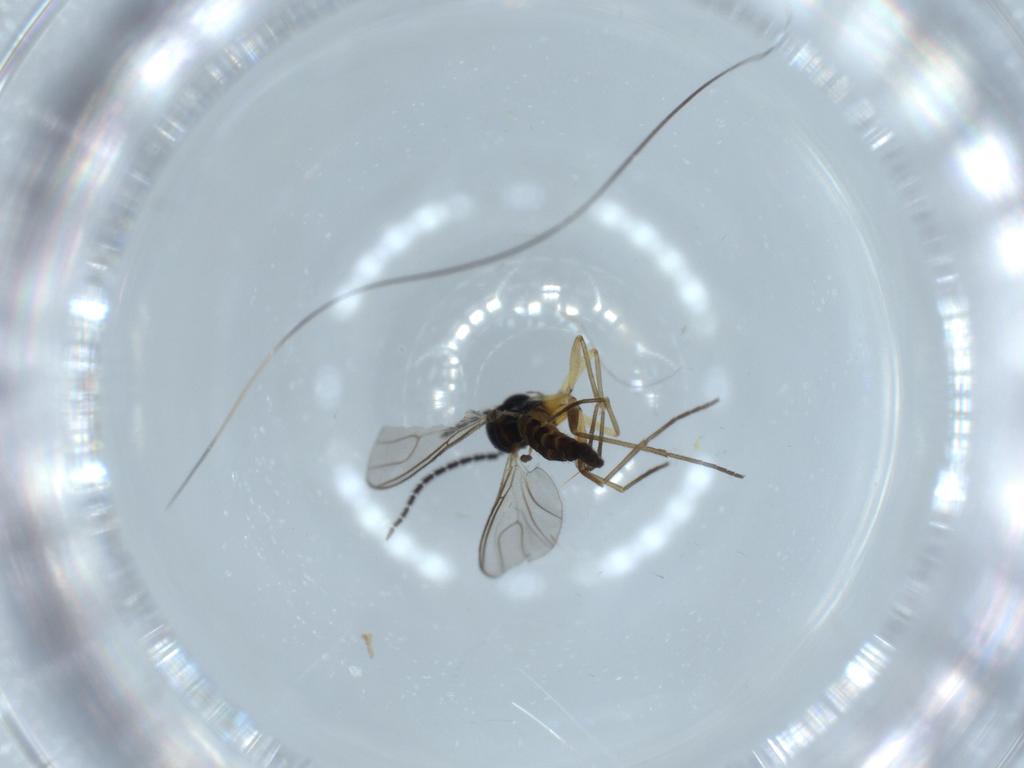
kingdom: Animalia
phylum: Arthropoda
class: Insecta
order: Diptera
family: Sciaridae
